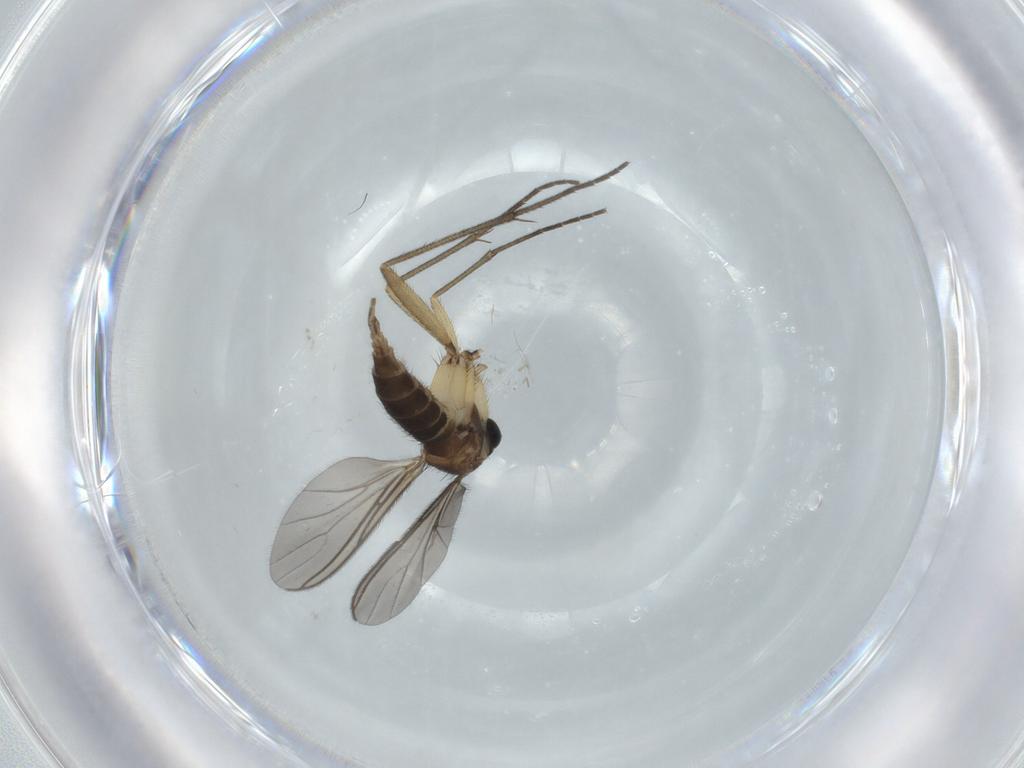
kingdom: Animalia
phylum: Arthropoda
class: Insecta
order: Diptera
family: Sciaridae
